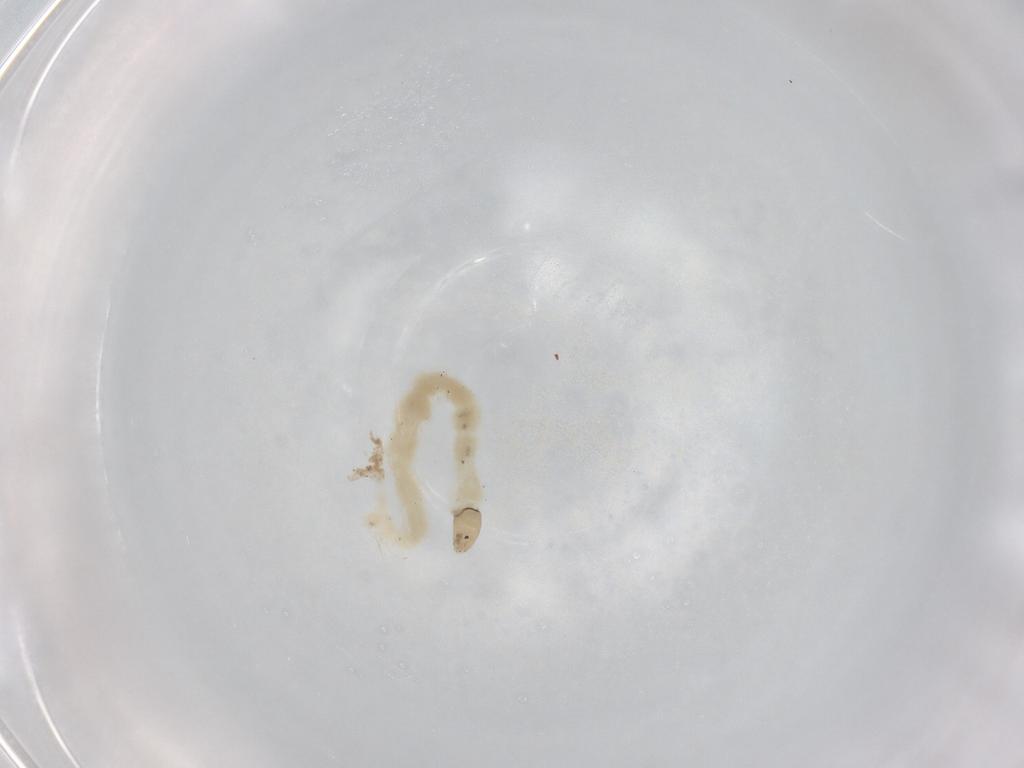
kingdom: Animalia
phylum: Arthropoda
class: Insecta
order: Diptera
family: Chironomidae
